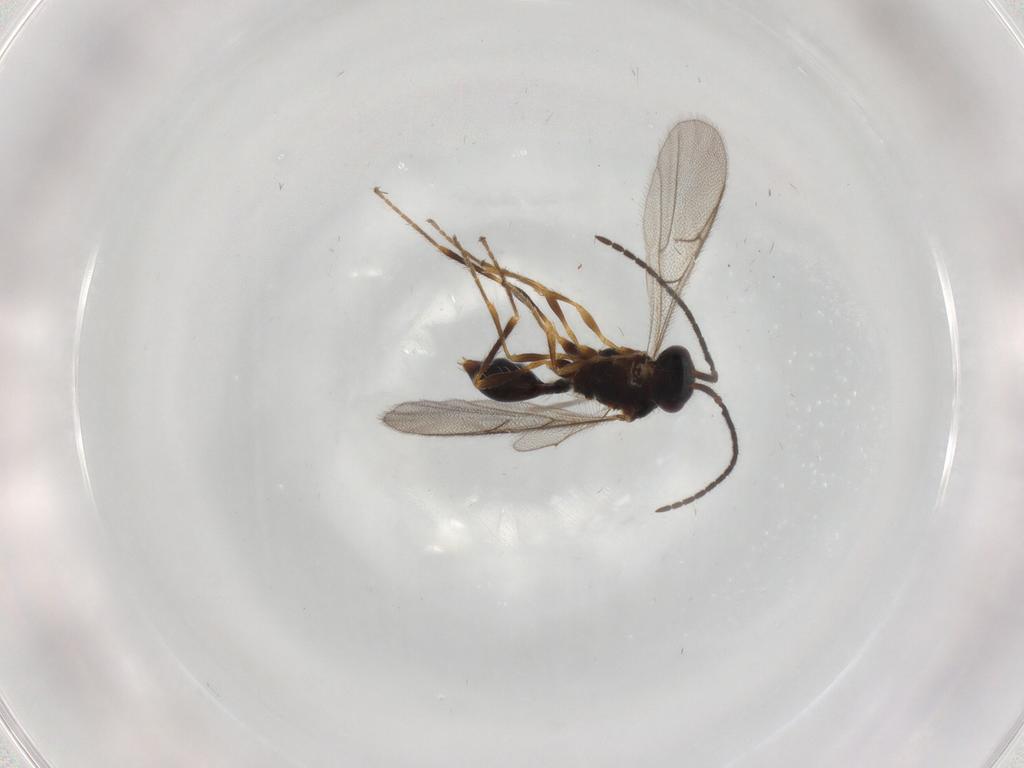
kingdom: Animalia
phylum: Arthropoda
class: Insecta
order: Hymenoptera
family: Diapriidae
